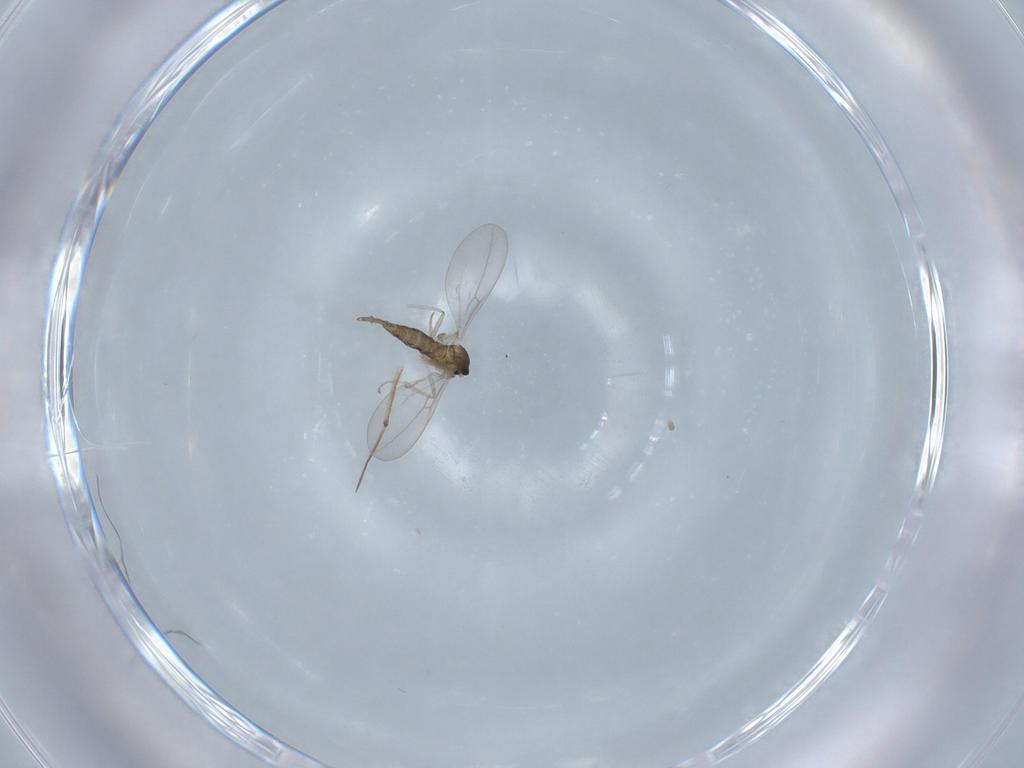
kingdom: Animalia
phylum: Arthropoda
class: Insecta
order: Diptera
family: Cecidomyiidae
